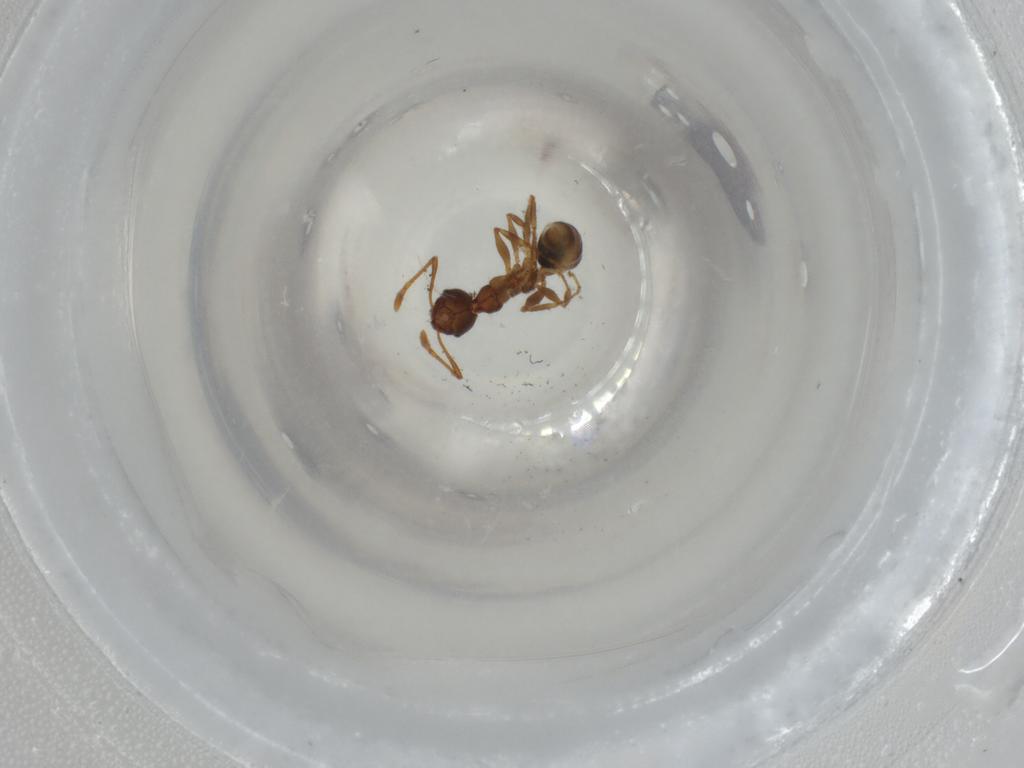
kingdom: Animalia
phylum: Arthropoda
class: Insecta
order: Hymenoptera
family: Formicidae
